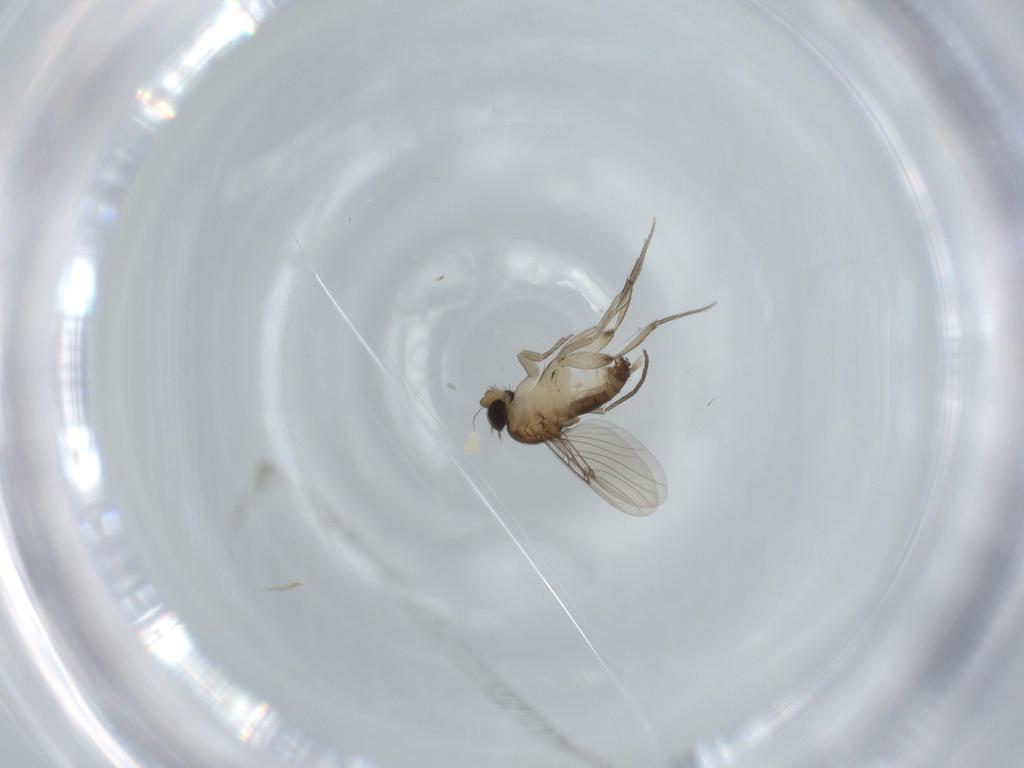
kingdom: Animalia
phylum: Arthropoda
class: Insecta
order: Diptera
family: Phoridae
